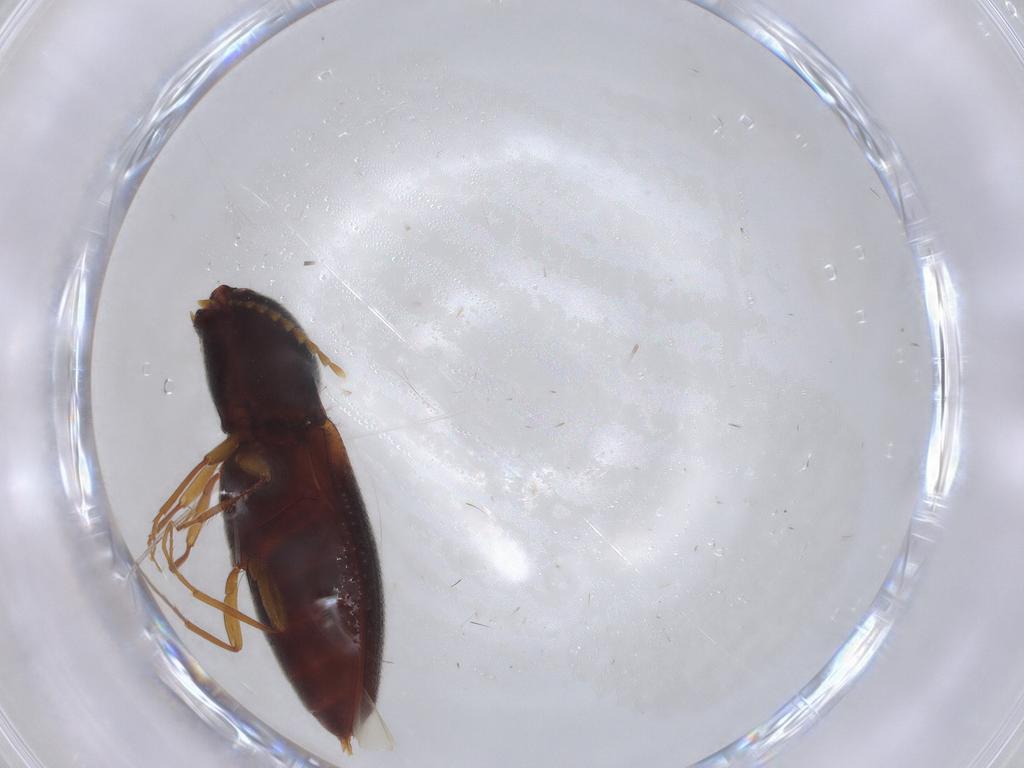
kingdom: Animalia
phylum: Arthropoda
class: Insecta
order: Coleoptera
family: Elateridae
